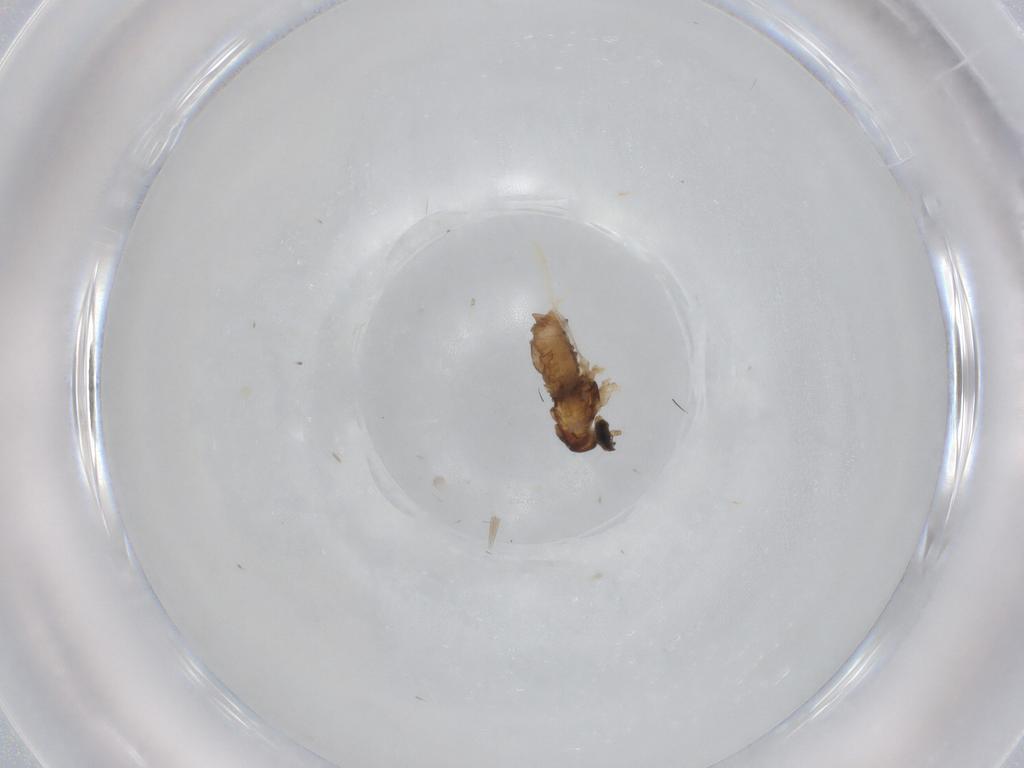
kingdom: Animalia
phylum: Arthropoda
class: Insecta
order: Diptera
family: Cecidomyiidae
